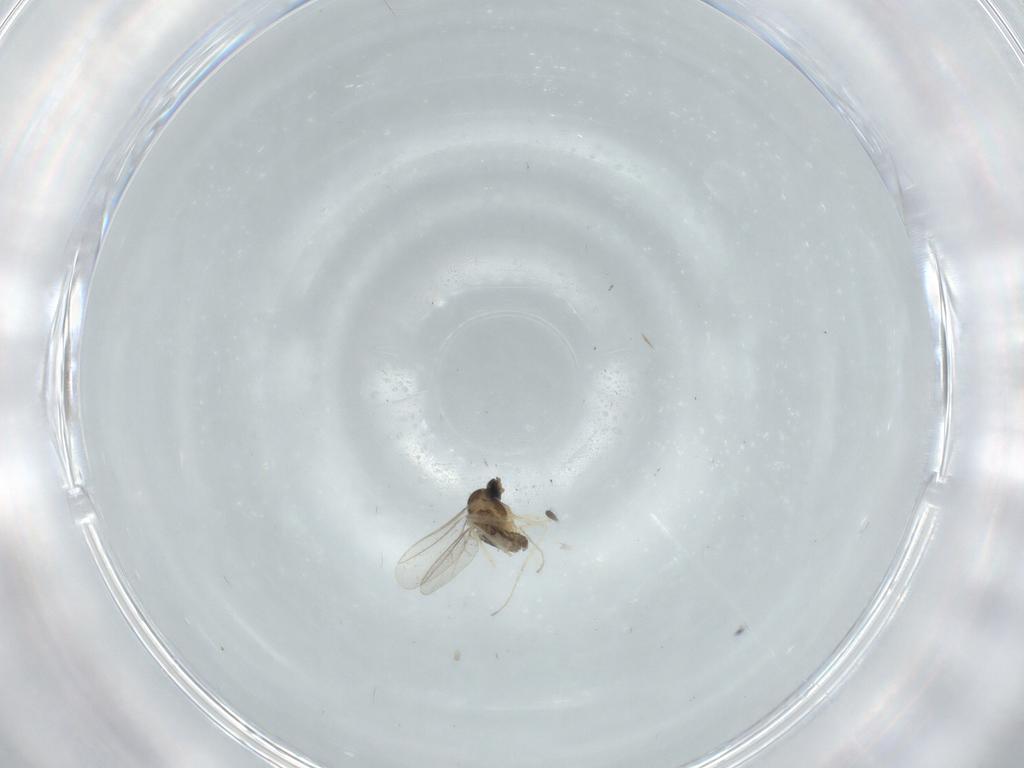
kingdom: Animalia
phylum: Arthropoda
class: Insecta
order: Diptera
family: Cecidomyiidae
